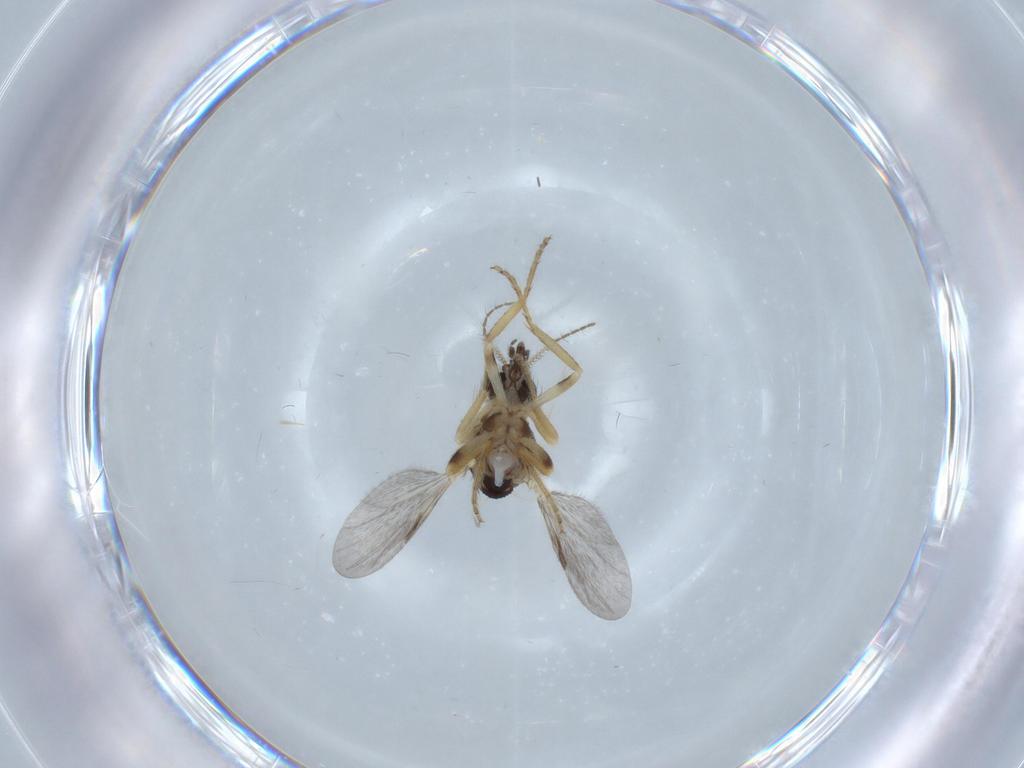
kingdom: Animalia
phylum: Arthropoda
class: Insecta
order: Diptera
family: Ceratopogonidae
